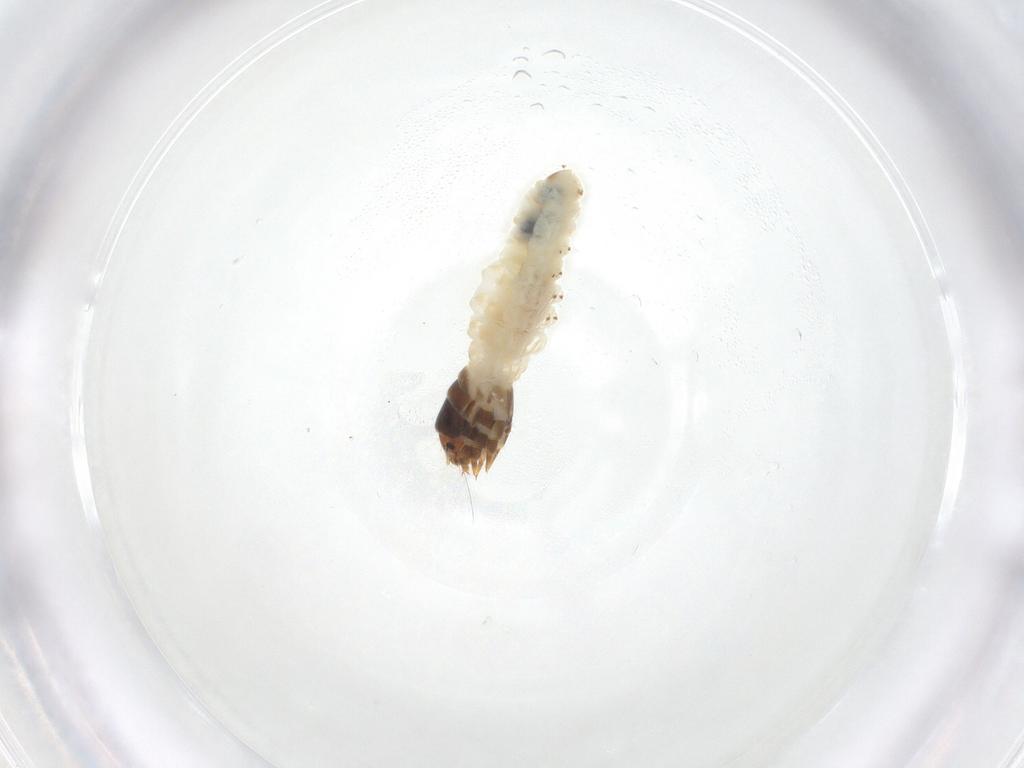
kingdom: Animalia
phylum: Arthropoda
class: Insecta
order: Lepidoptera
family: Psychidae
